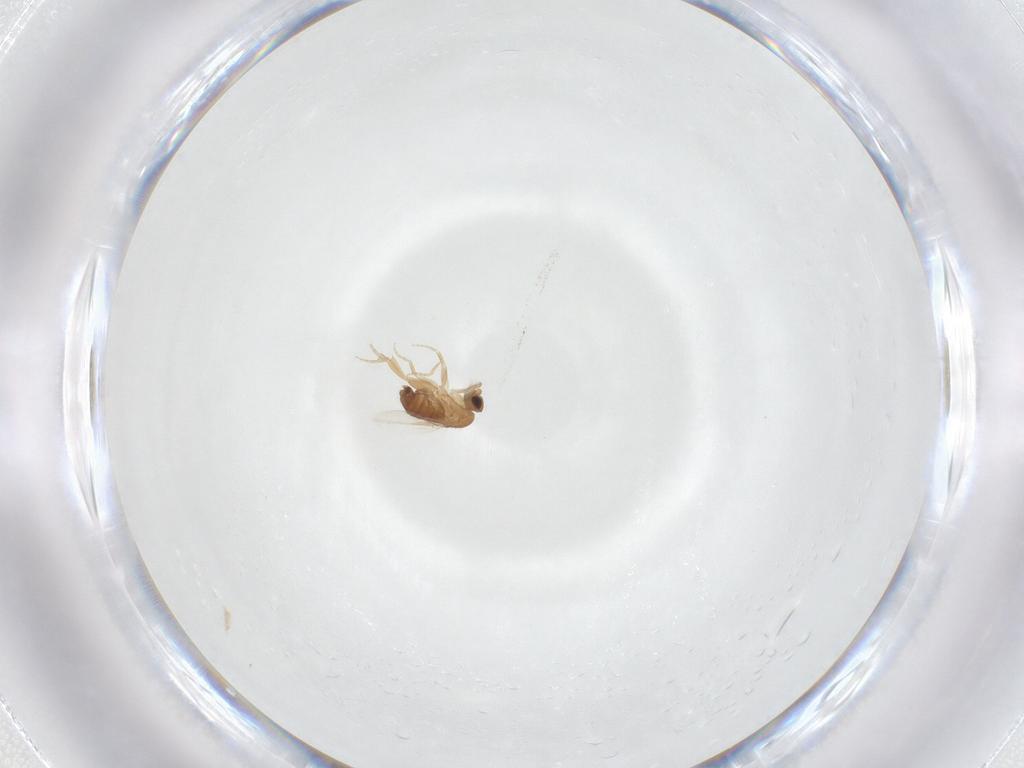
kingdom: Animalia
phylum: Arthropoda
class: Insecta
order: Diptera
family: Phoridae
